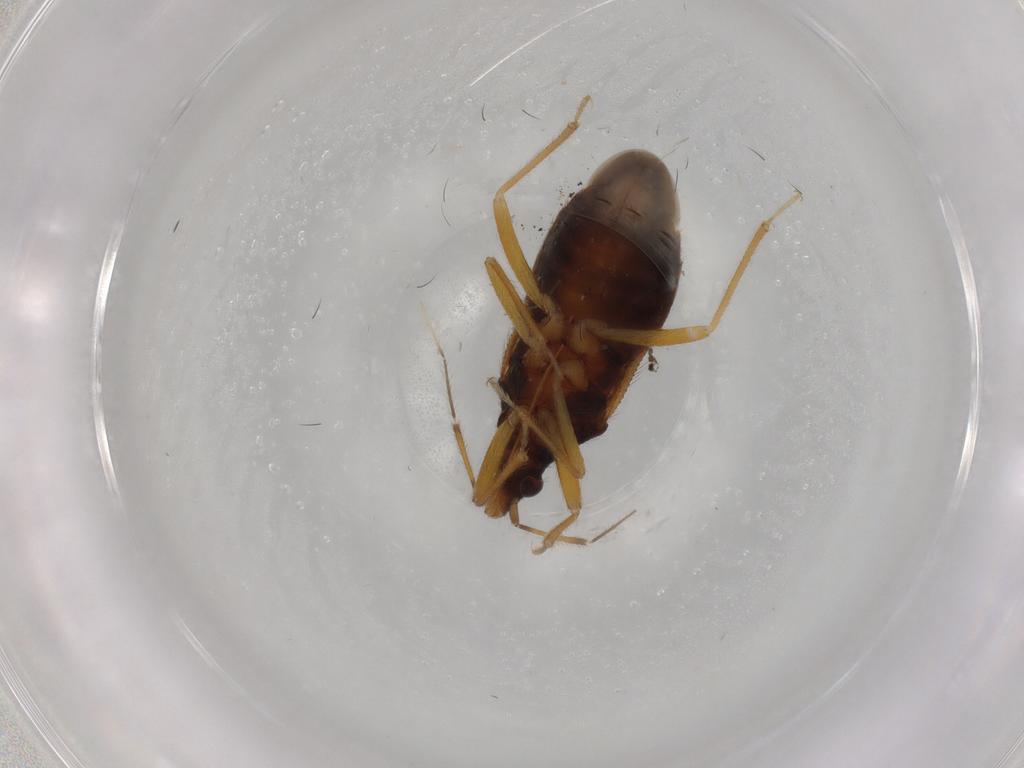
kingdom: Animalia
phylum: Arthropoda
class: Insecta
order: Hemiptera
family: Anthocoridae
